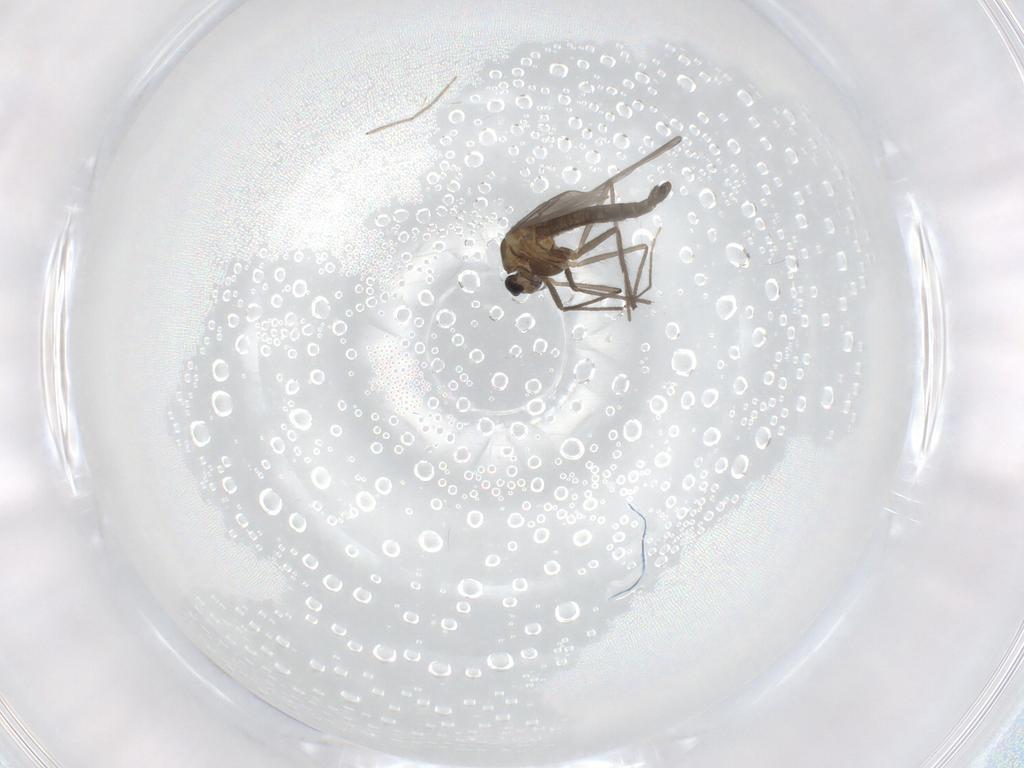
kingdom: Animalia
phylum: Arthropoda
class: Insecta
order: Diptera
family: Chironomidae
